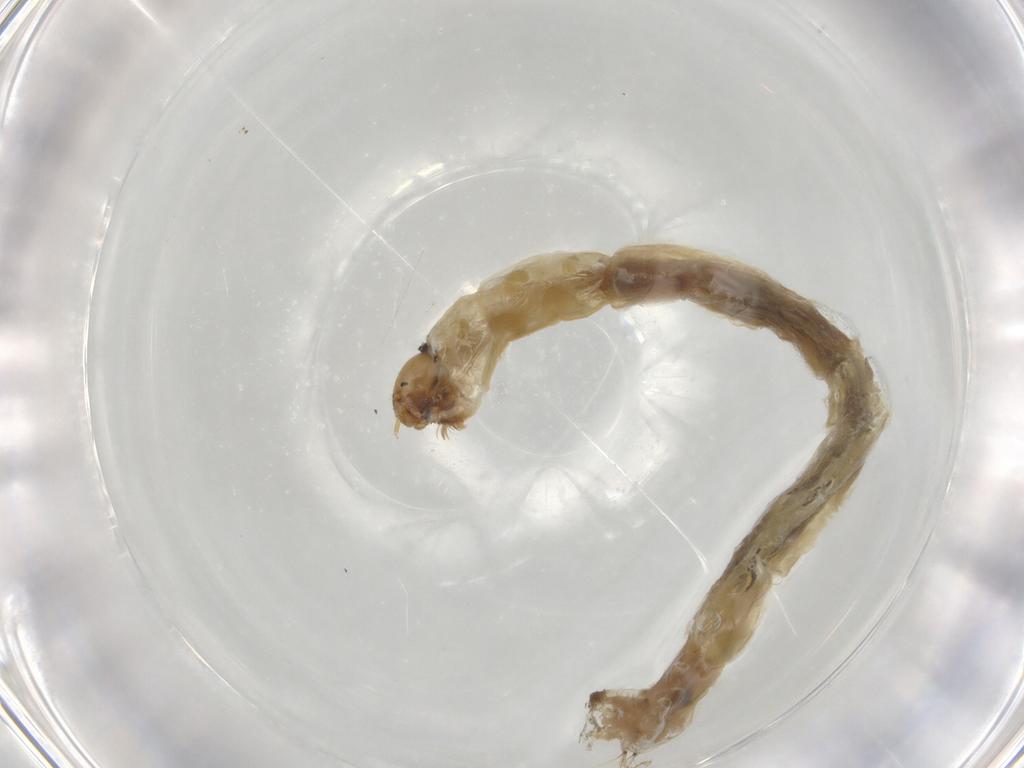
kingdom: Animalia
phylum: Arthropoda
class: Insecta
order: Diptera
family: Chironomidae
